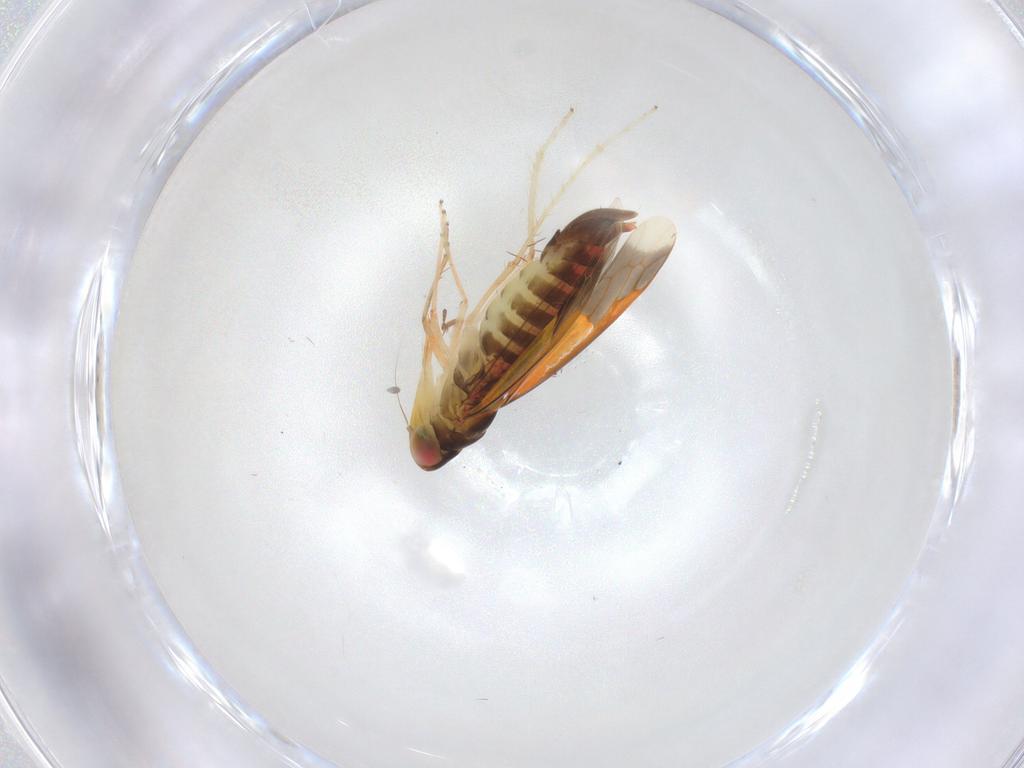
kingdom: Animalia
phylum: Arthropoda
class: Insecta
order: Hemiptera
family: Cicadellidae
